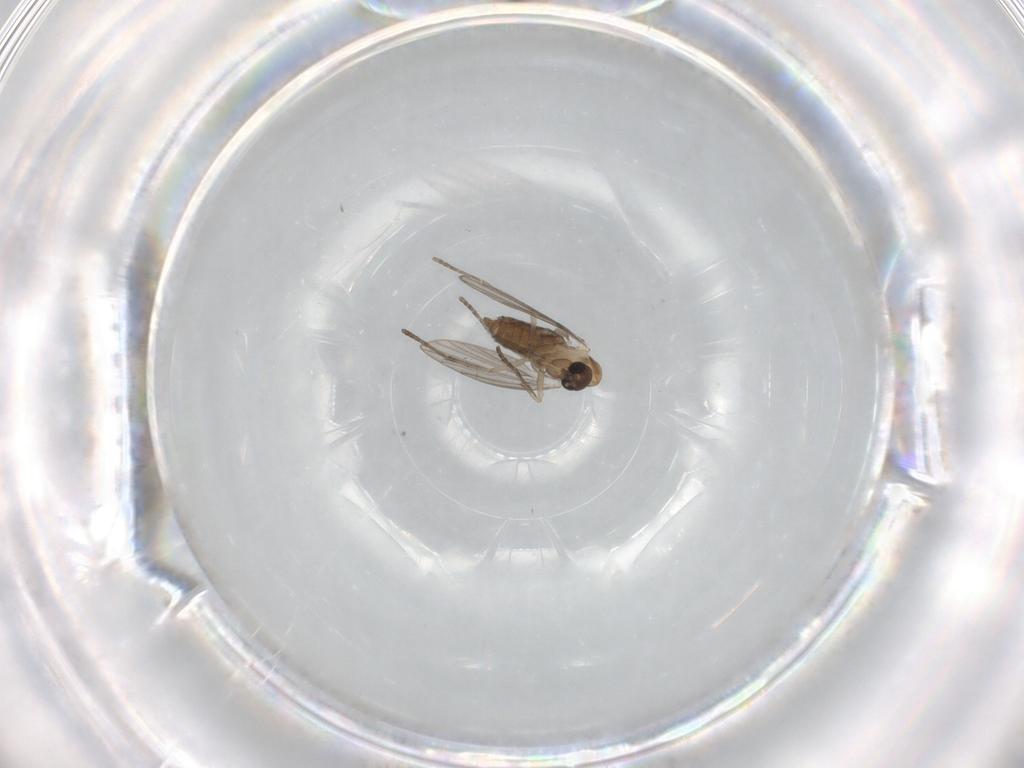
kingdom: Animalia
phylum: Arthropoda
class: Insecta
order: Diptera
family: Psychodidae
